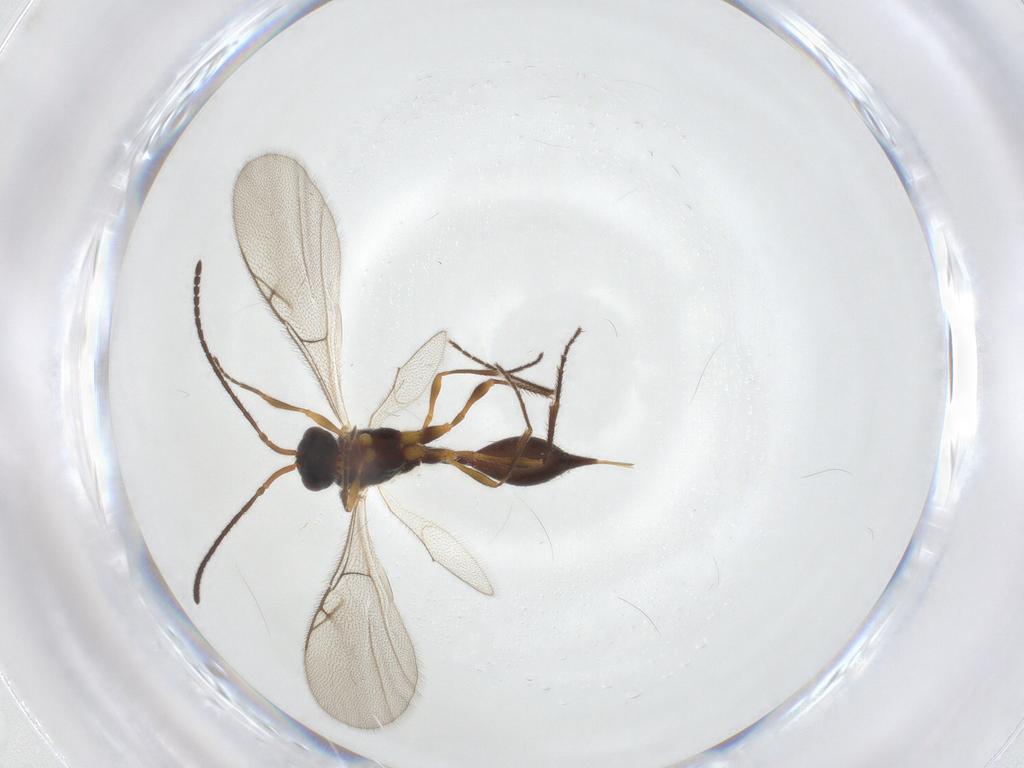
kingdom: Animalia
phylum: Arthropoda
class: Insecta
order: Hymenoptera
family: Diapriidae
